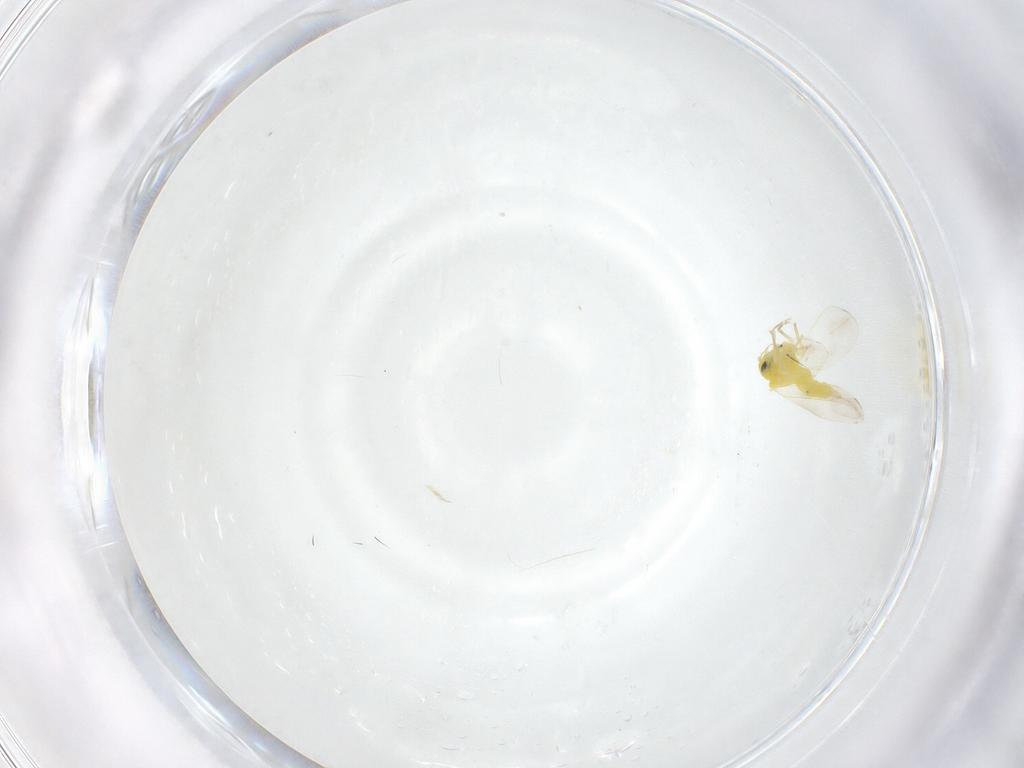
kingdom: Animalia
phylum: Arthropoda
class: Insecta
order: Hemiptera
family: Aleyrodidae
